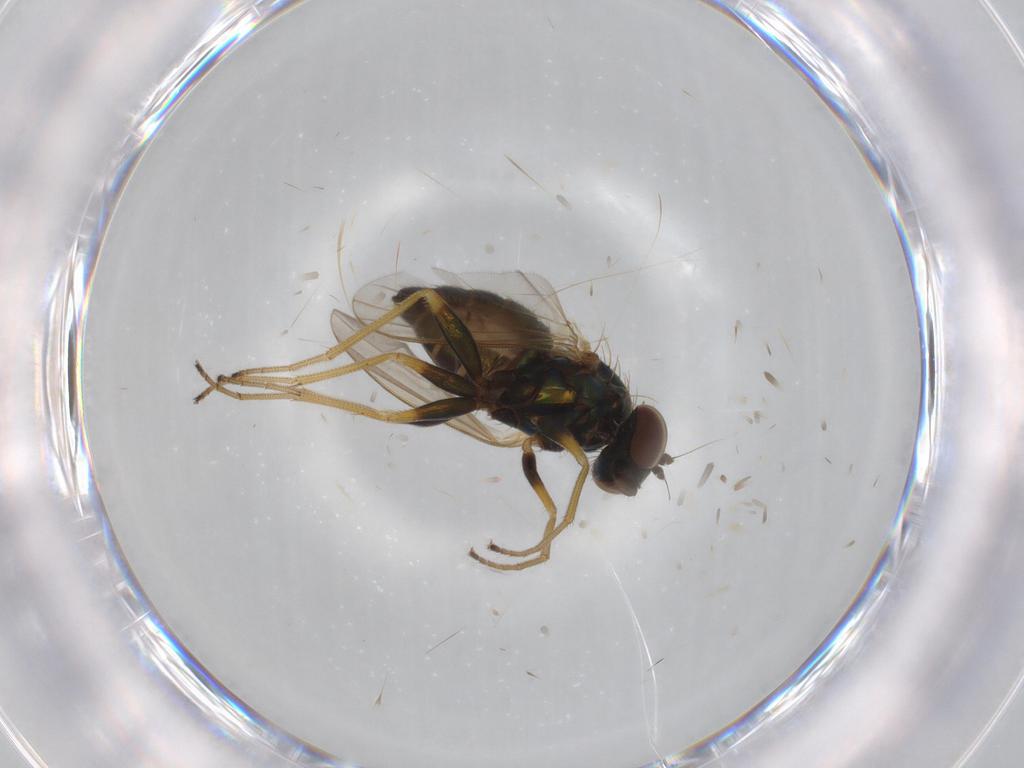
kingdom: Animalia
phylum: Arthropoda
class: Insecta
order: Diptera
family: Dolichopodidae
